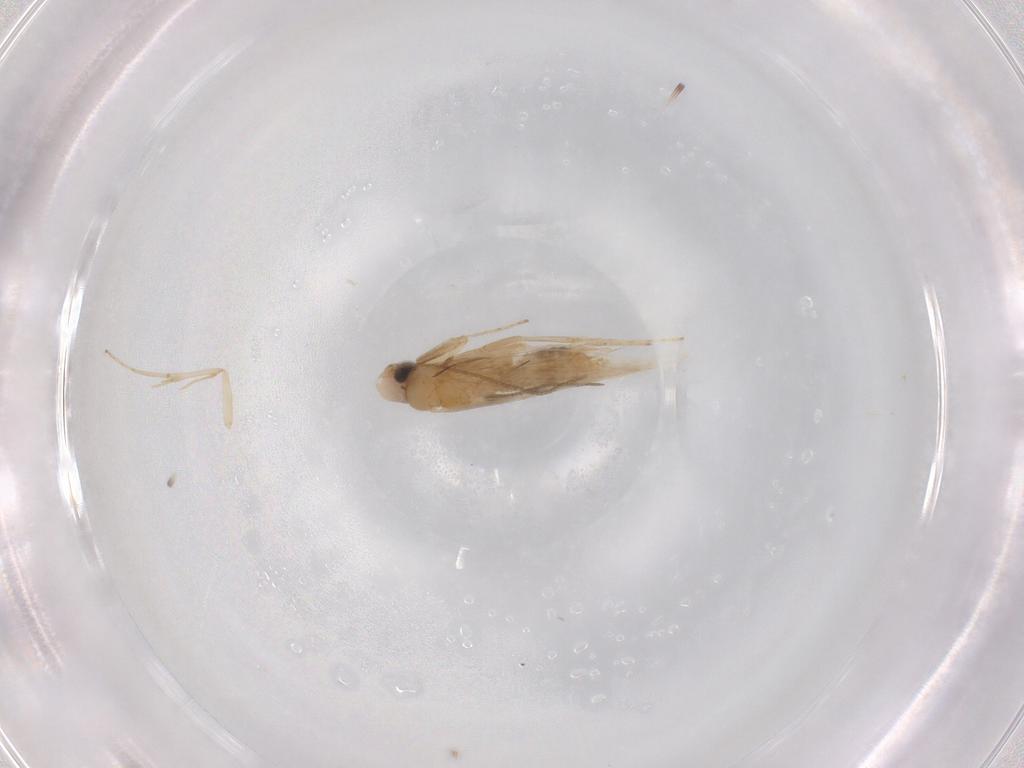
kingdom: Animalia
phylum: Arthropoda
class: Insecta
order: Lepidoptera
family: Tischeriidae
